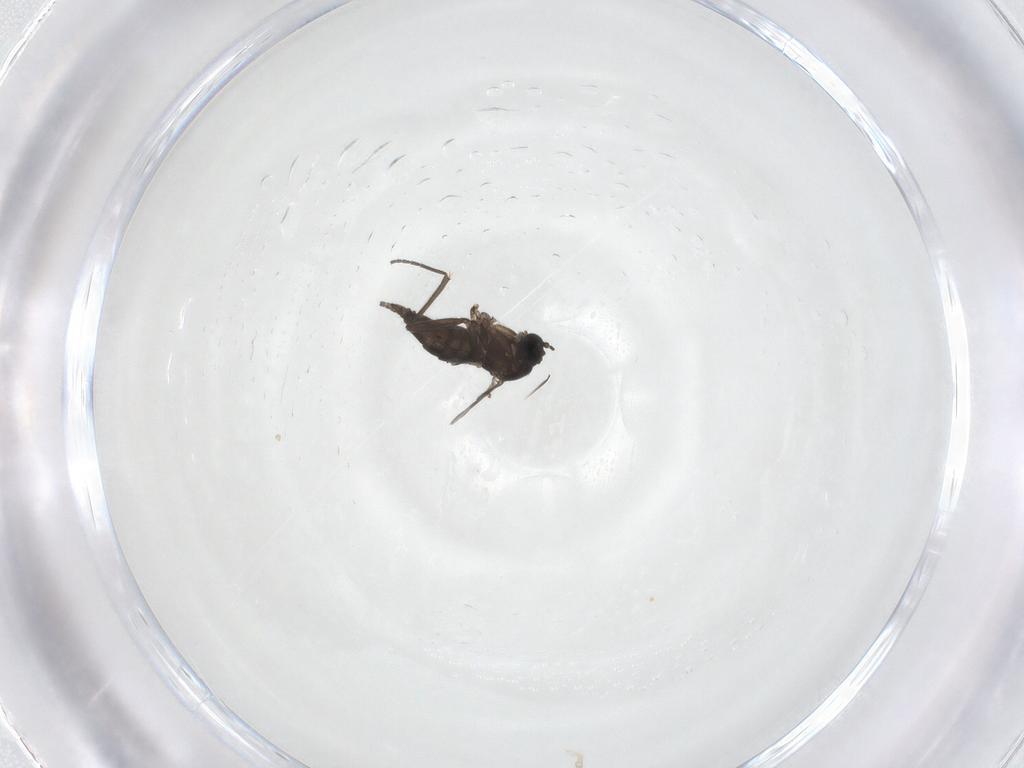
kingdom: Animalia
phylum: Arthropoda
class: Insecta
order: Diptera
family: Sciaridae
